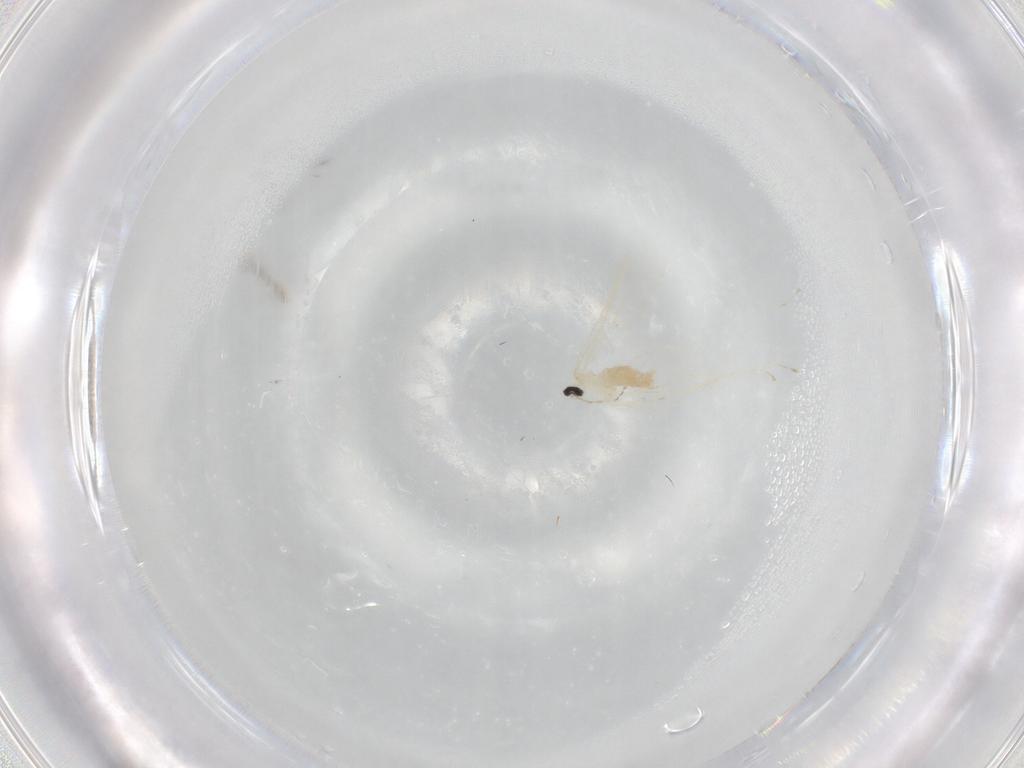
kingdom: Animalia
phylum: Arthropoda
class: Insecta
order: Diptera
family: Cecidomyiidae
